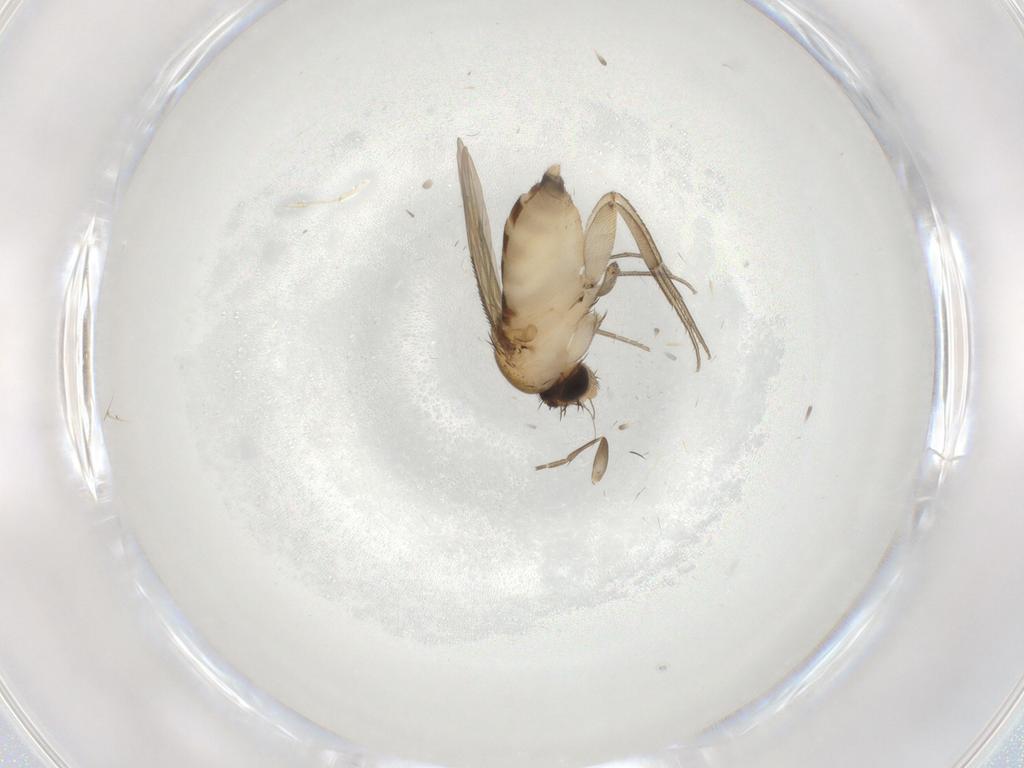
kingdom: Animalia
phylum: Arthropoda
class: Insecta
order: Diptera
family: Phoridae
